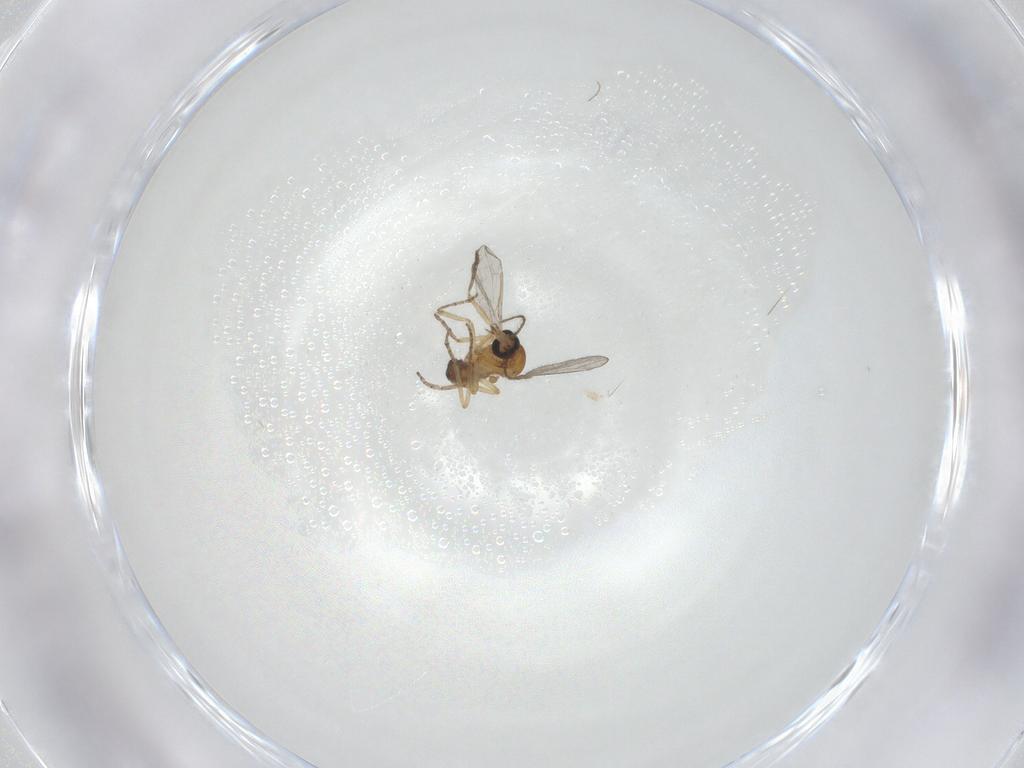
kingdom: Animalia
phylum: Arthropoda
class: Insecta
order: Diptera
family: Ceratopogonidae
